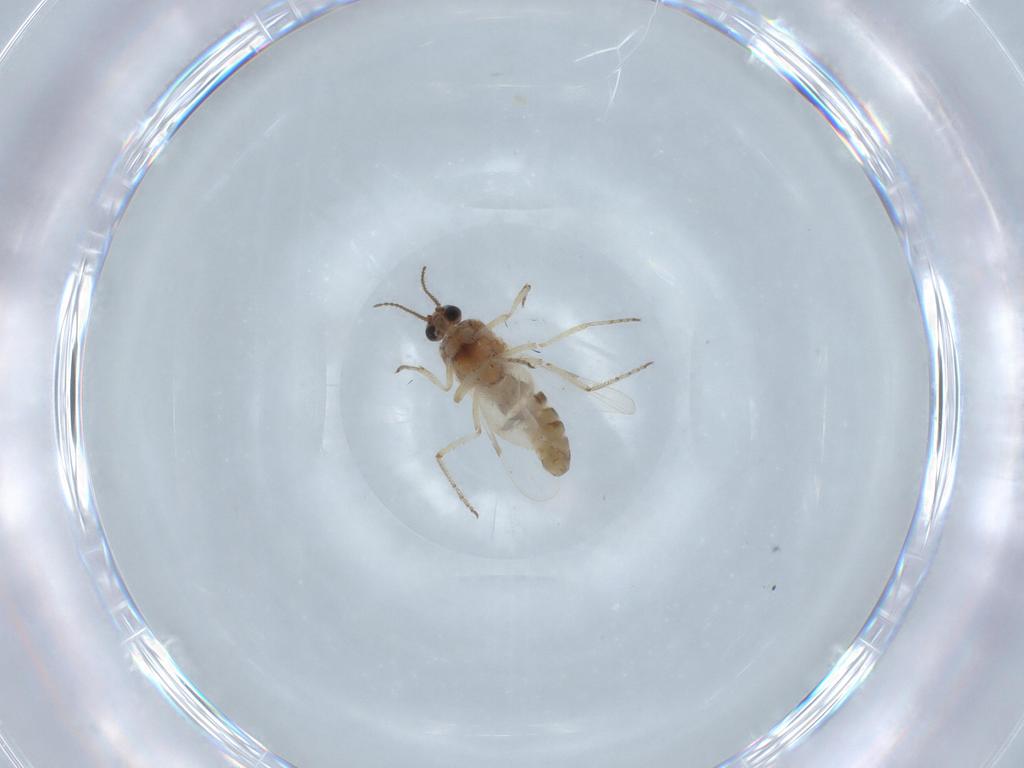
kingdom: Animalia
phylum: Arthropoda
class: Insecta
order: Diptera
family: Ceratopogonidae
